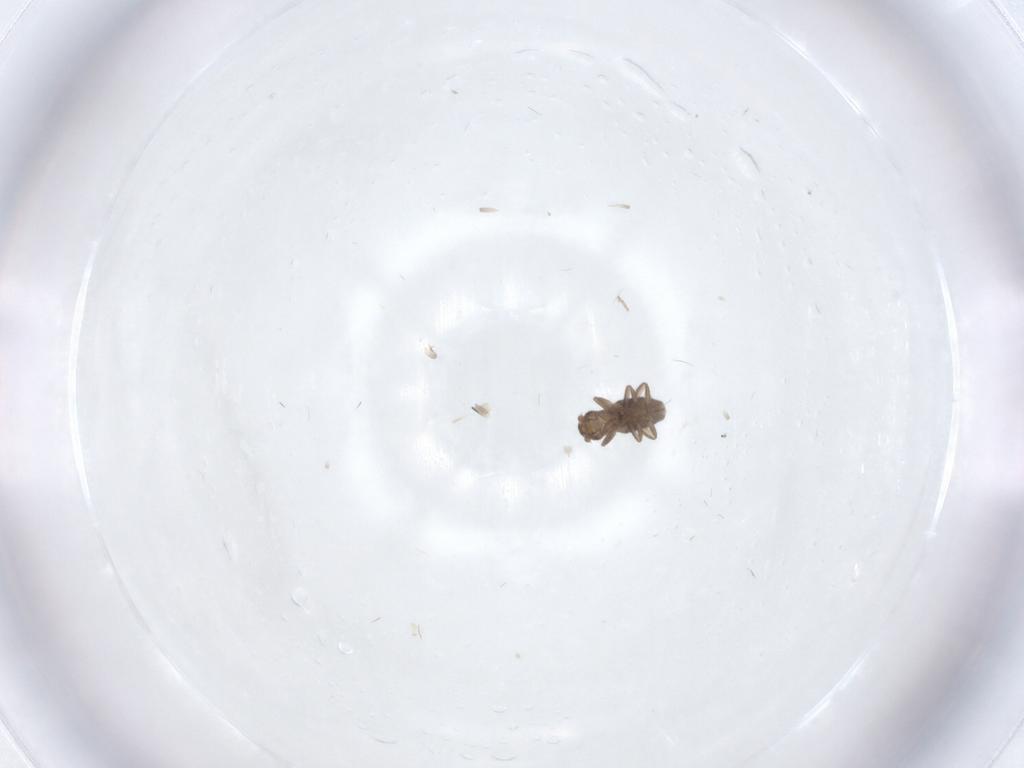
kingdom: Animalia
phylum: Arthropoda
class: Insecta
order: Diptera
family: Phoridae
